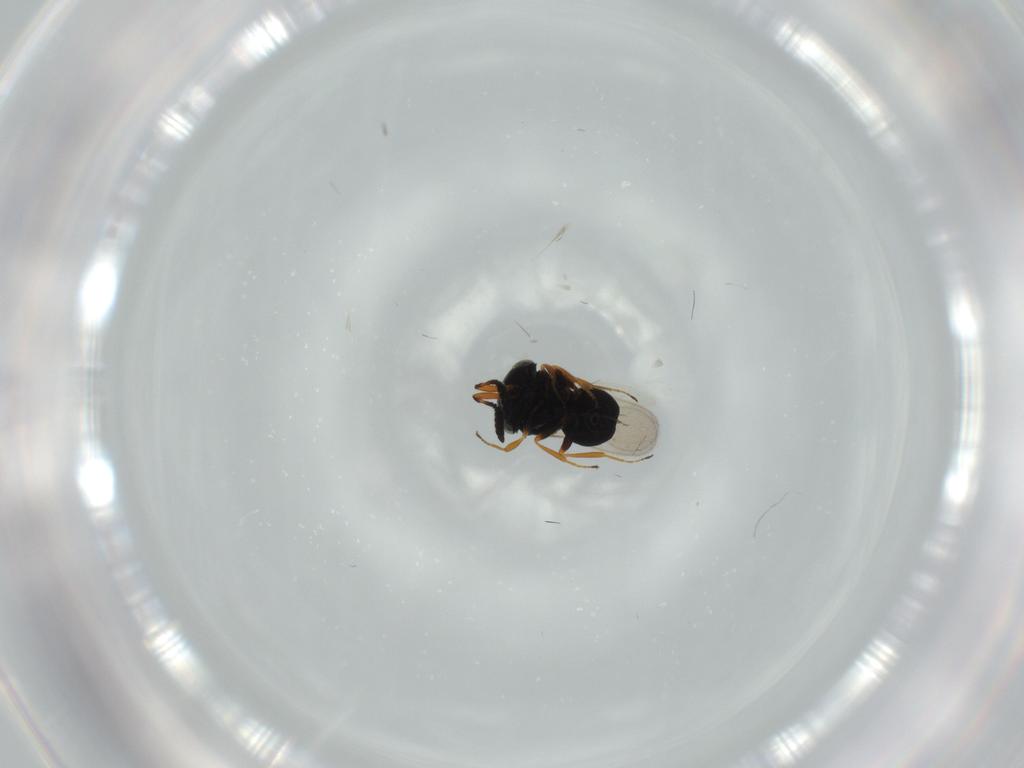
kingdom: Animalia
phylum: Arthropoda
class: Insecta
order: Hymenoptera
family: Scelionidae
